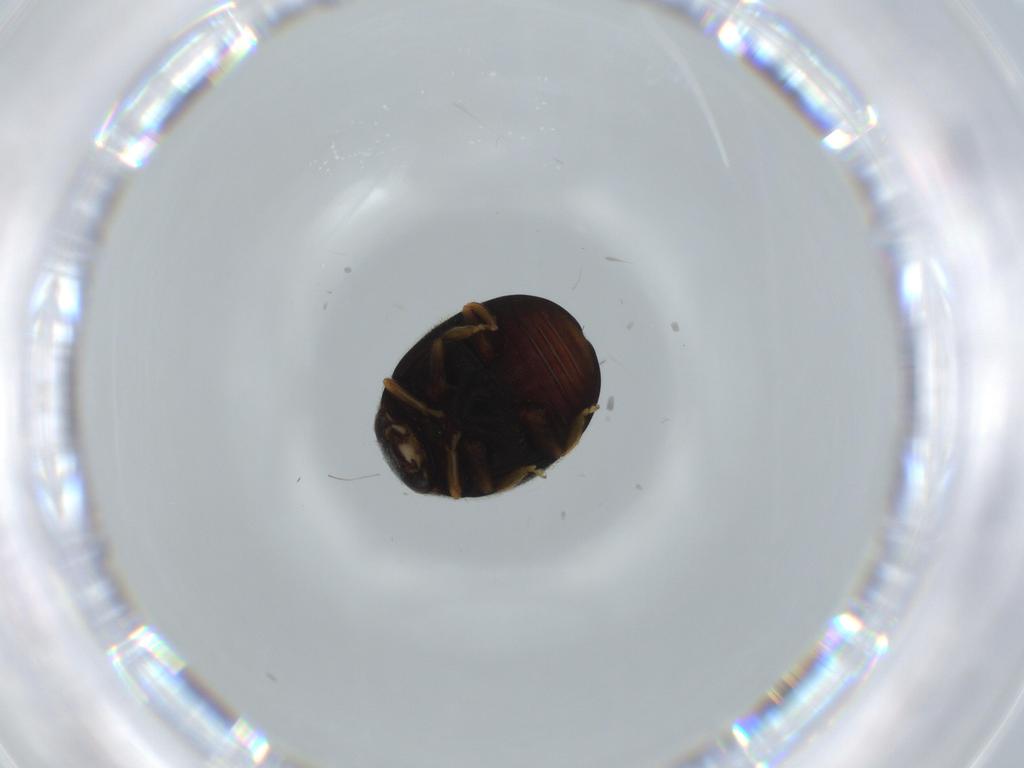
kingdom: Animalia
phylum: Arthropoda
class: Insecta
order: Coleoptera
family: Coccinellidae
